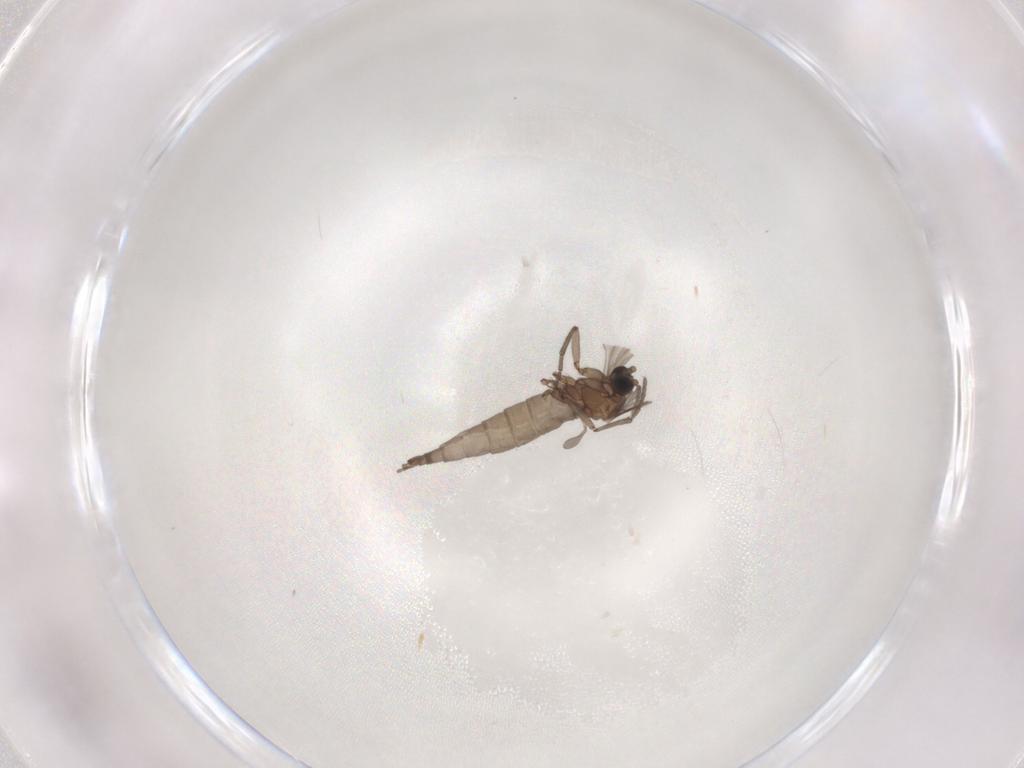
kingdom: Animalia
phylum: Arthropoda
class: Insecta
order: Diptera
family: Sciaridae
